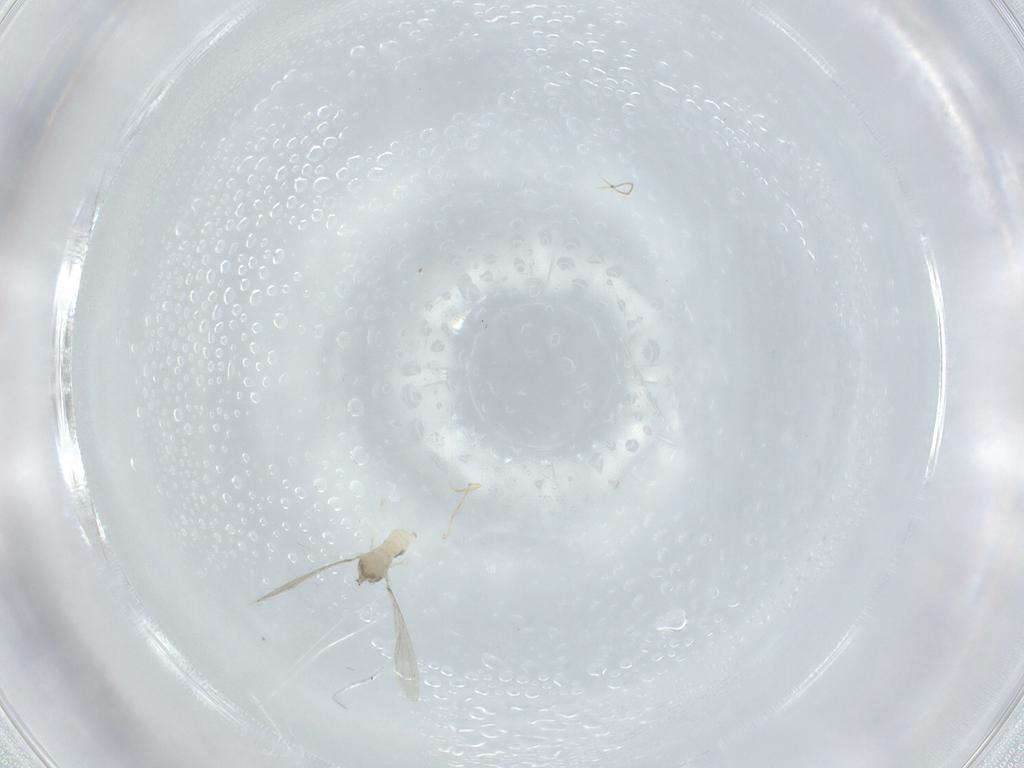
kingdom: Animalia
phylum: Arthropoda
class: Insecta
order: Diptera
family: Cecidomyiidae
